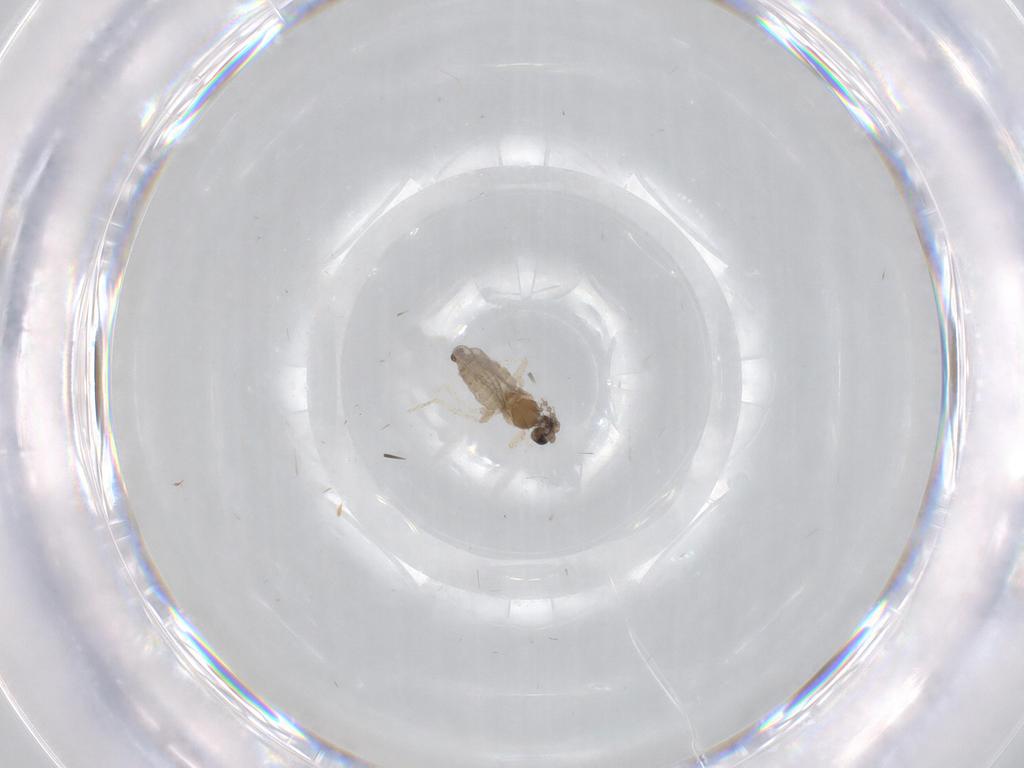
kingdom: Animalia
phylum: Arthropoda
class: Insecta
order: Diptera
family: Cecidomyiidae
